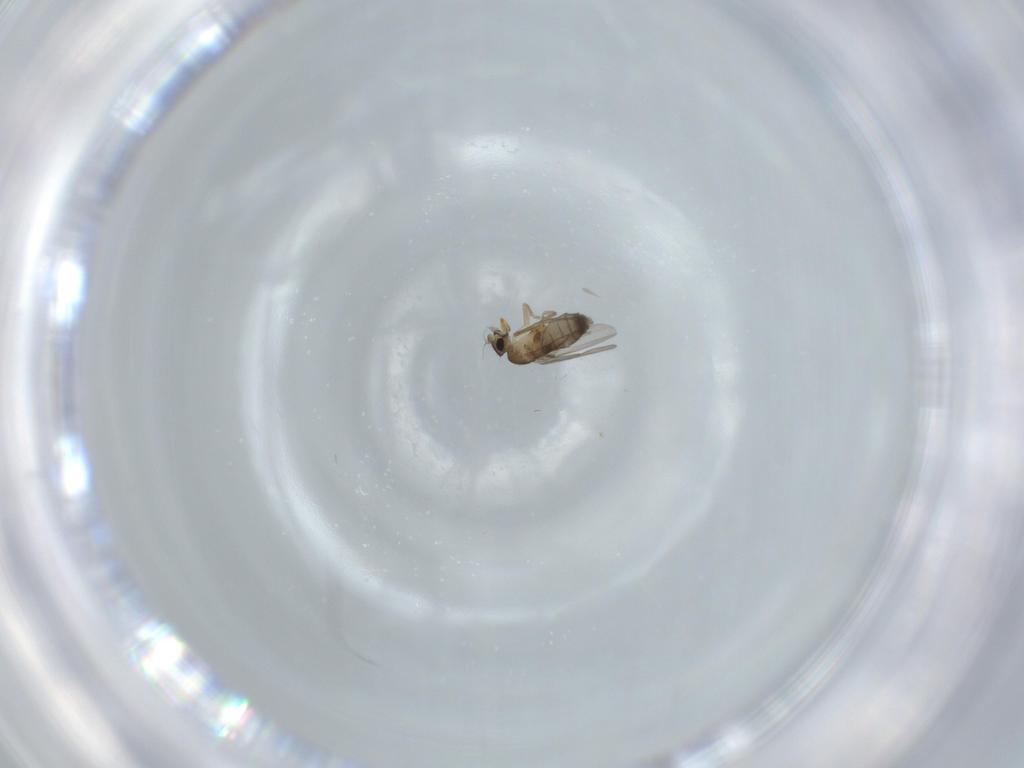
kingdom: Animalia
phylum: Arthropoda
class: Insecta
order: Diptera
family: Phoridae
